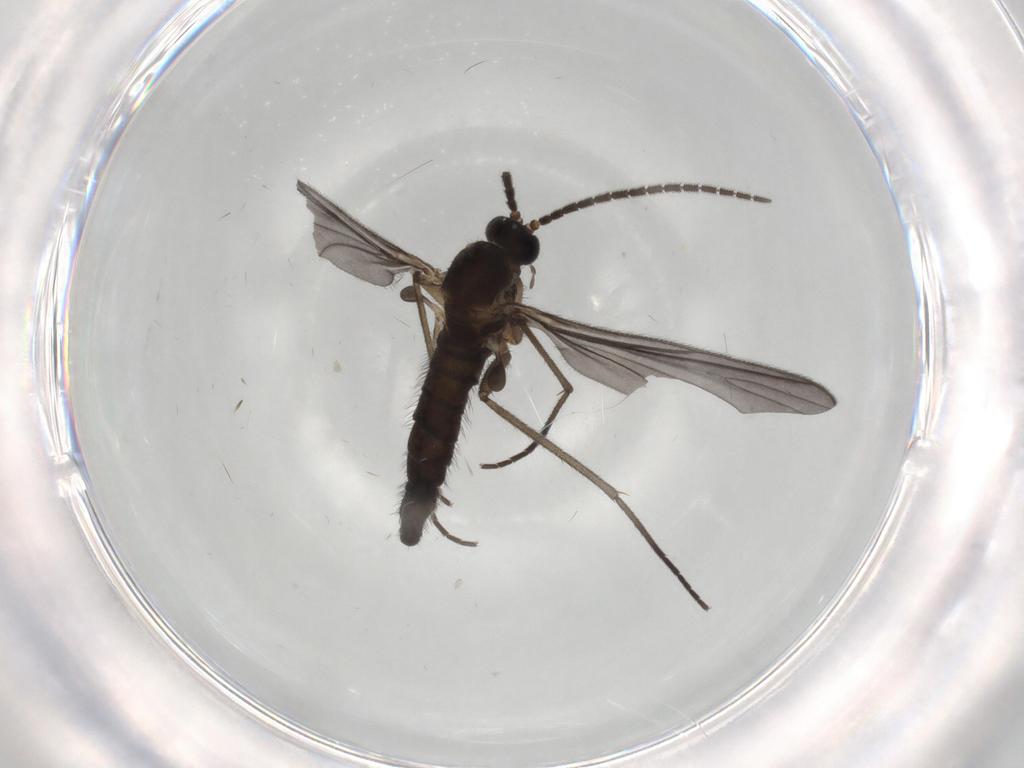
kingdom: Animalia
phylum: Arthropoda
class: Insecta
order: Diptera
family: Sciaridae
